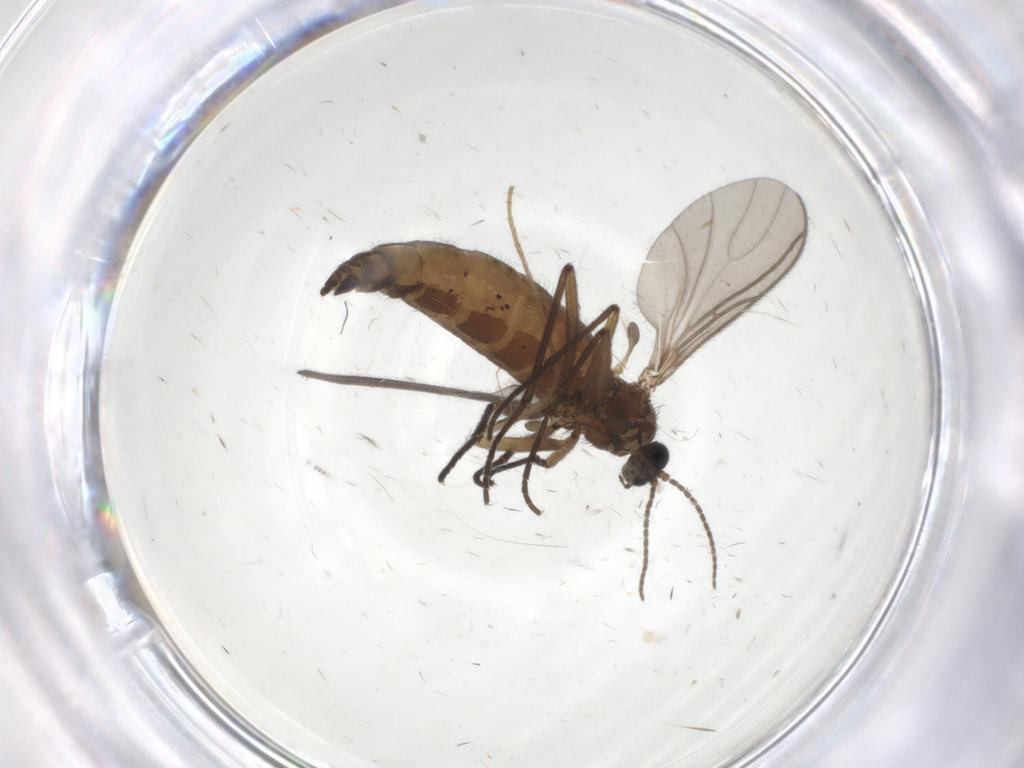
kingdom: Animalia
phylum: Arthropoda
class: Insecta
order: Diptera
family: Sciaridae
